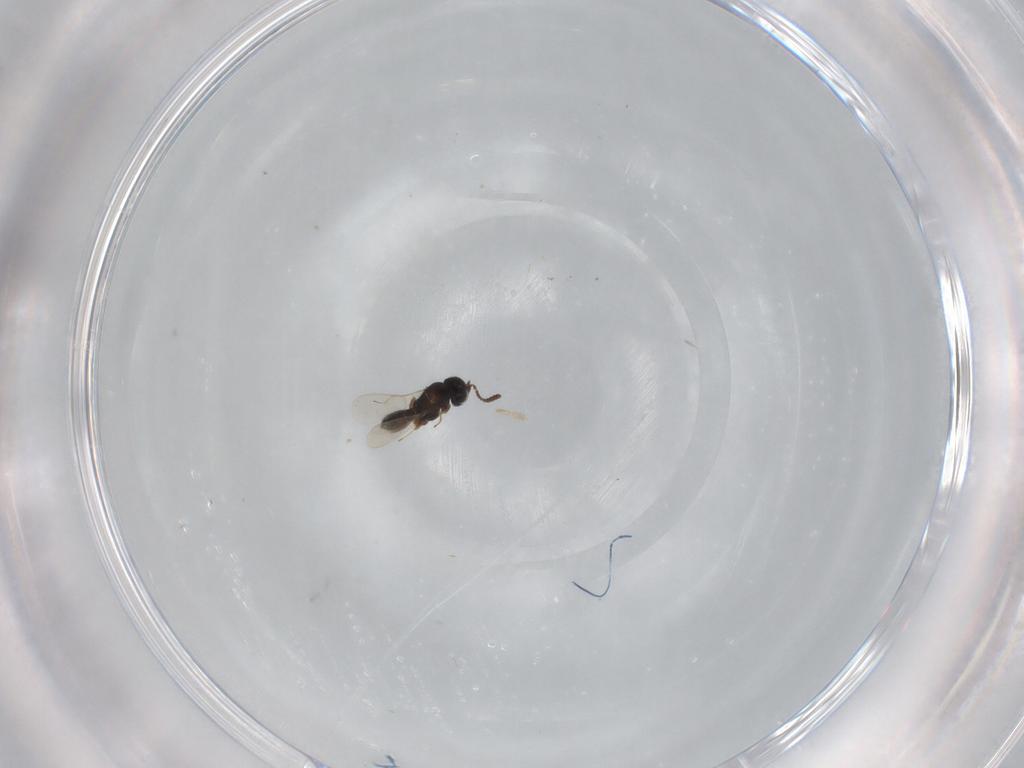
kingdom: Animalia
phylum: Arthropoda
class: Insecta
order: Hymenoptera
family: Scelionidae
